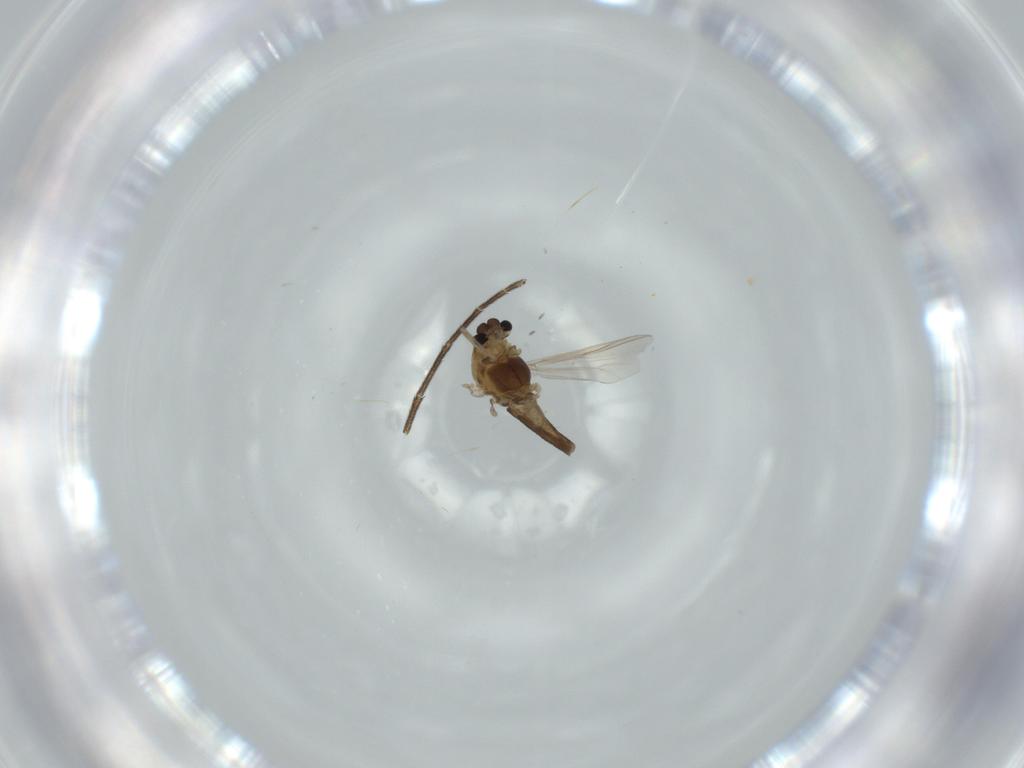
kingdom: Animalia
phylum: Arthropoda
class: Insecta
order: Diptera
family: Chironomidae
